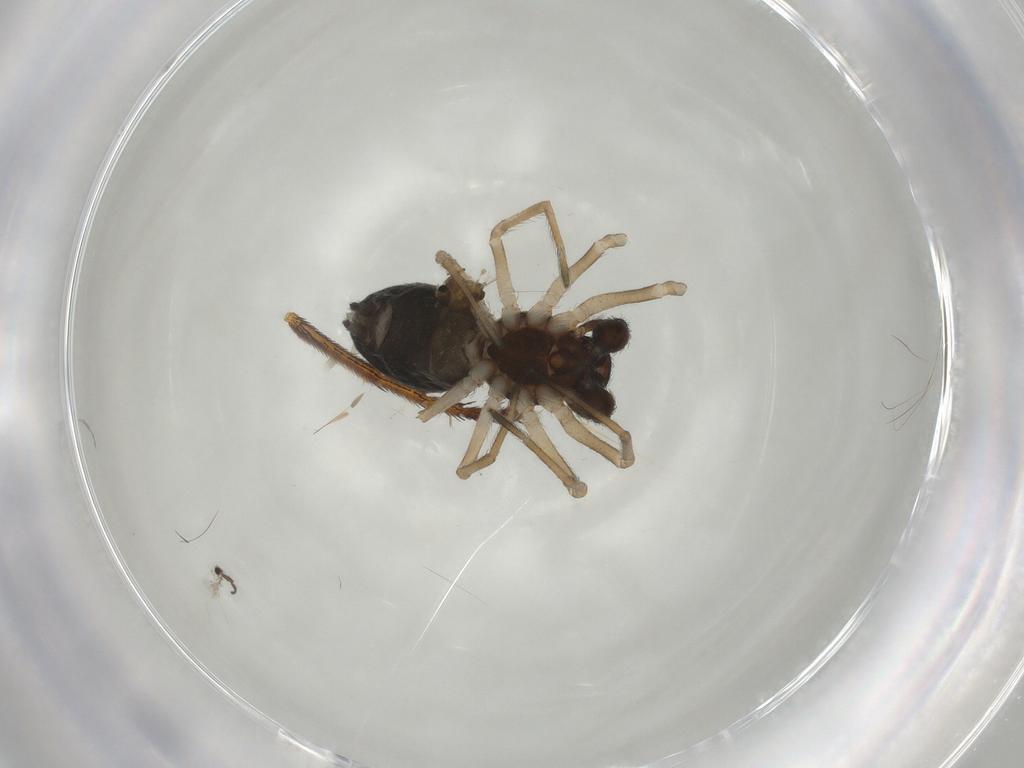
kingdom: Animalia
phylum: Arthropoda
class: Arachnida
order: Araneae
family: Dictynidae
